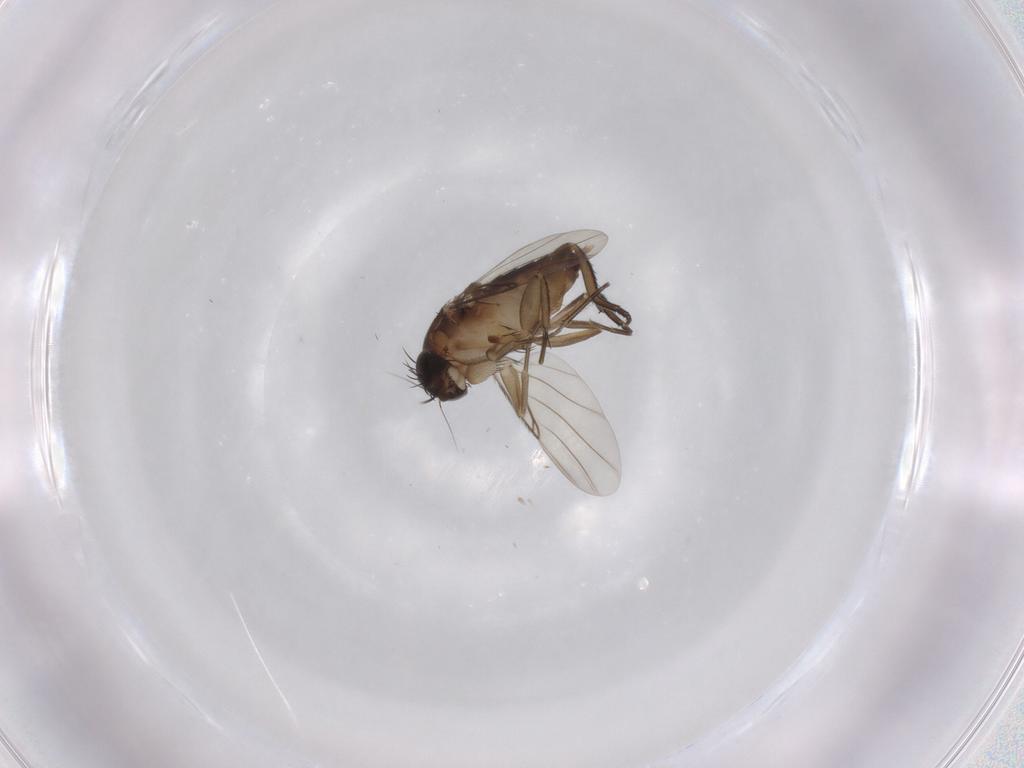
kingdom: Animalia
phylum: Arthropoda
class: Insecta
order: Diptera
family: Phoridae
